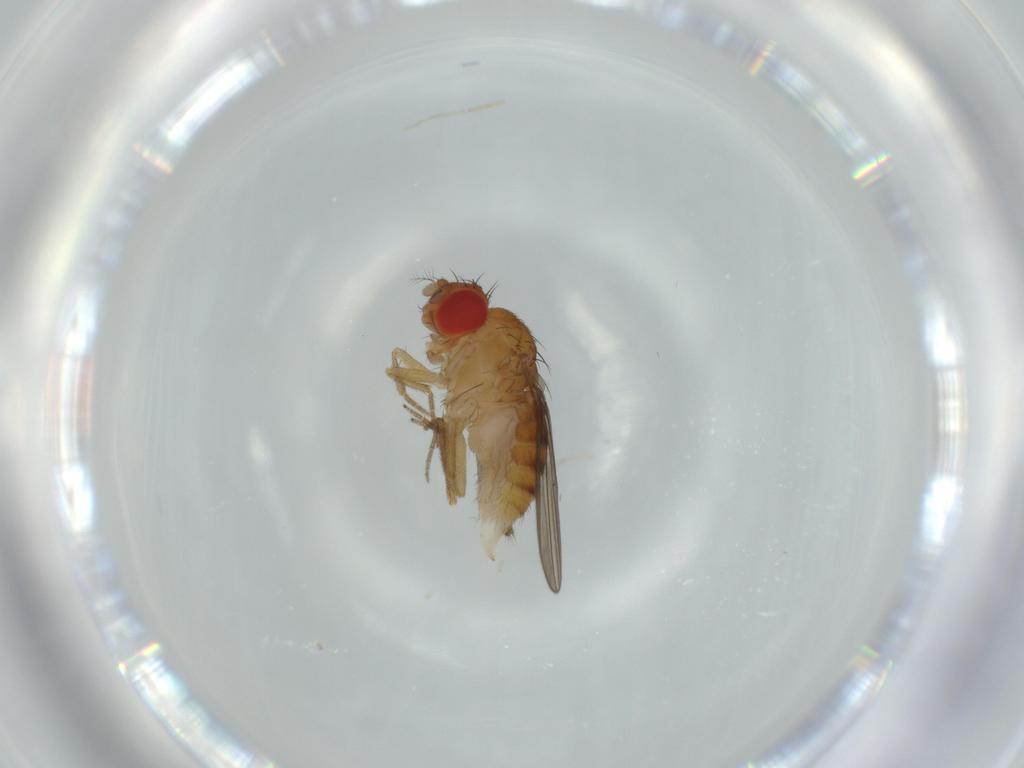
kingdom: Animalia
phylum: Arthropoda
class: Insecta
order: Diptera
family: Drosophilidae
